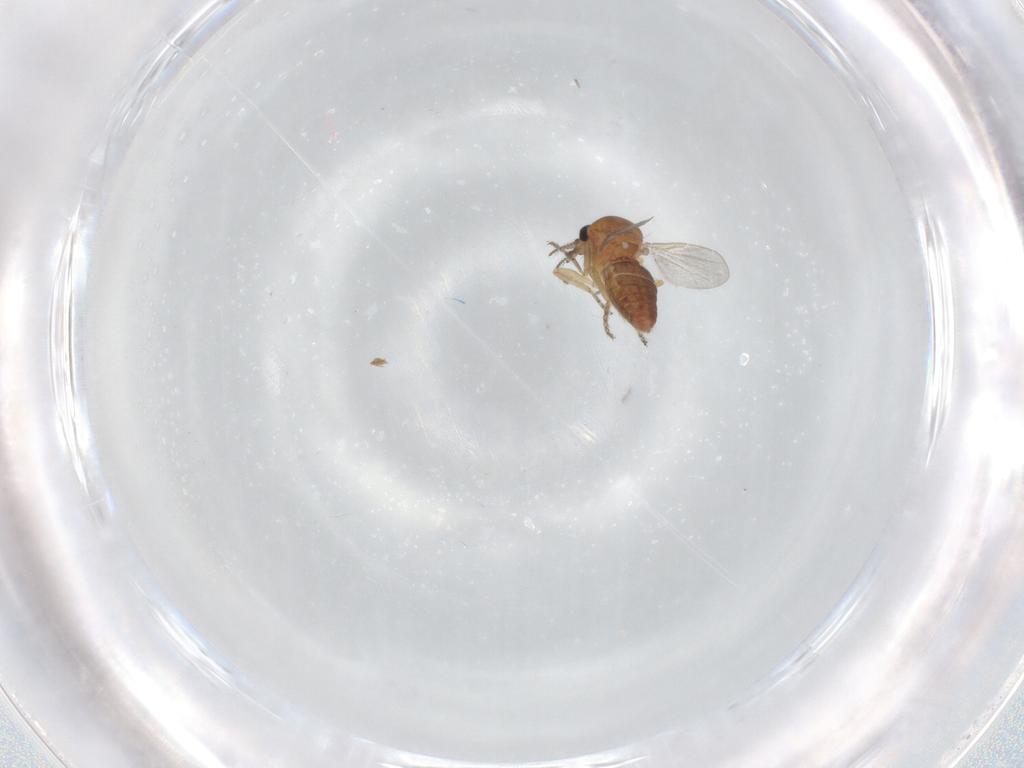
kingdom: Animalia
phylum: Arthropoda
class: Insecta
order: Diptera
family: Ceratopogonidae
